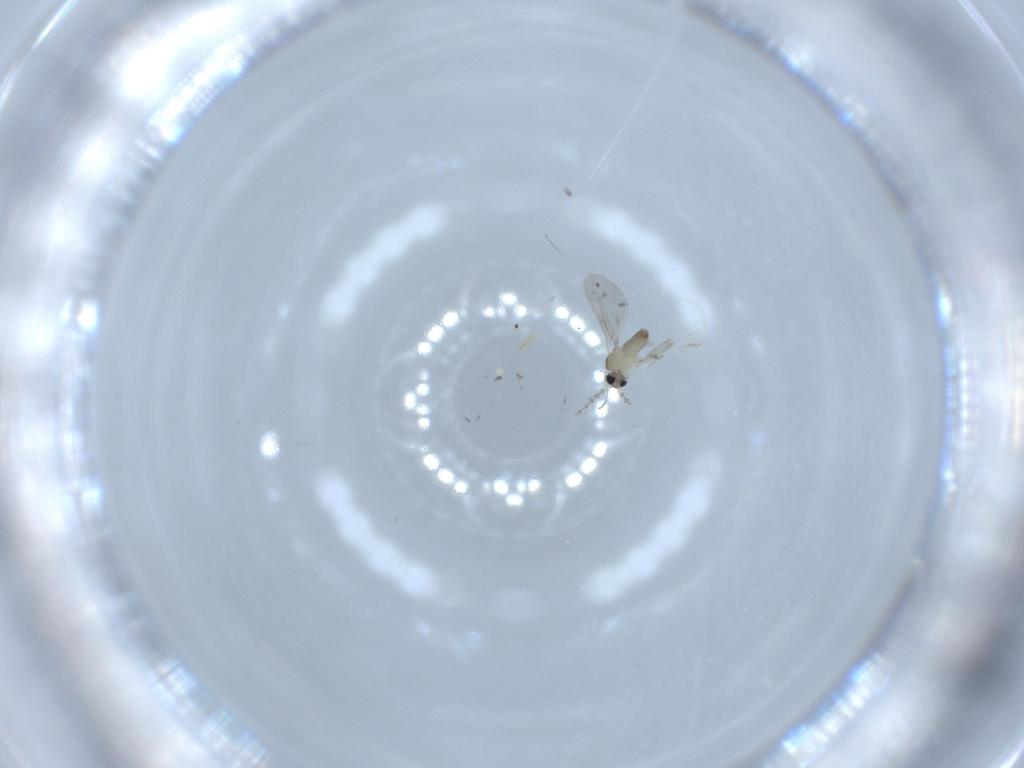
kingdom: Animalia
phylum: Arthropoda
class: Insecta
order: Diptera
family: Cecidomyiidae
